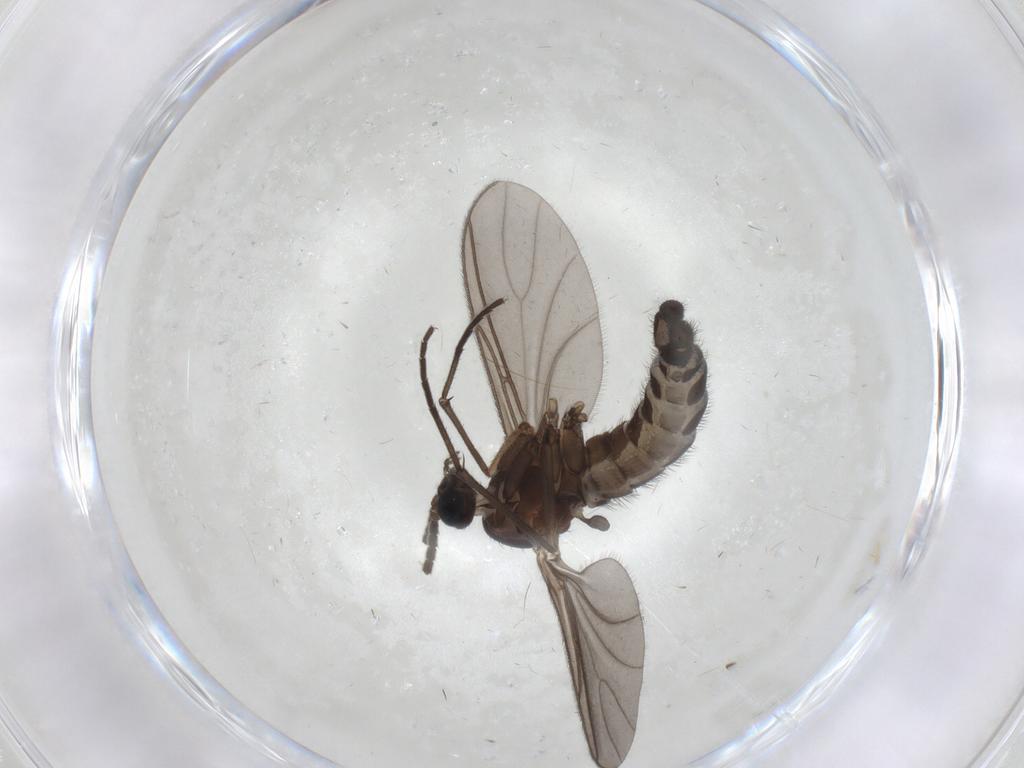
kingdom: Animalia
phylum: Arthropoda
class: Insecta
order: Diptera
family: Sciaridae
